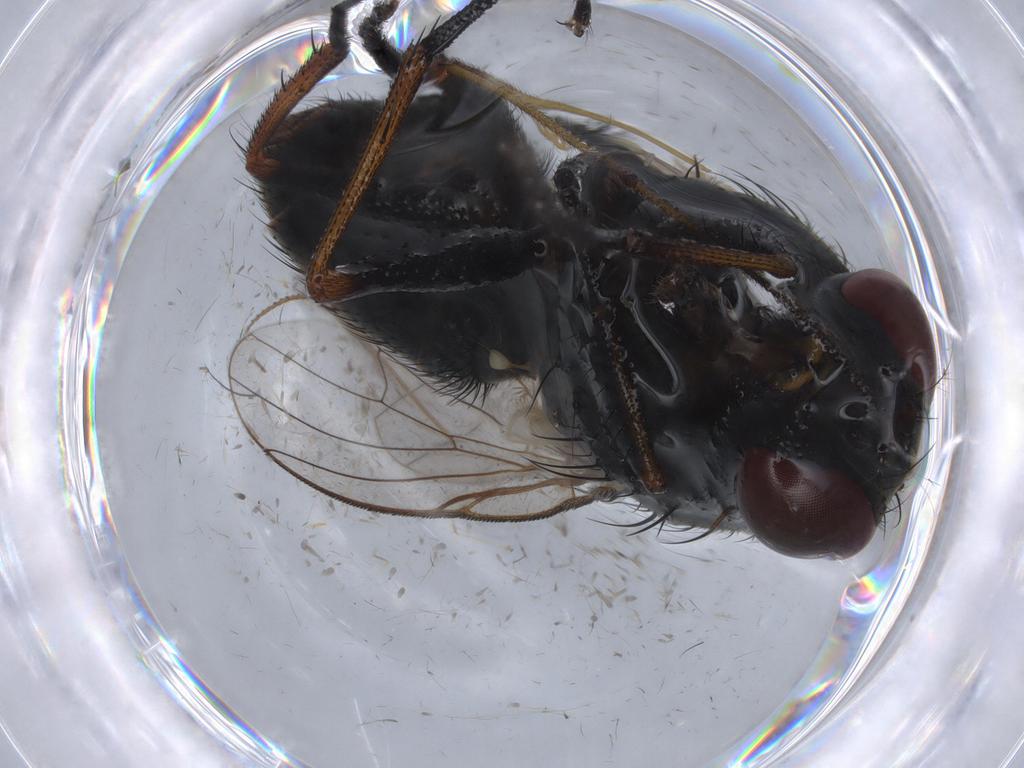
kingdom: Animalia
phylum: Arthropoda
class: Insecta
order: Diptera
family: Muscidae
